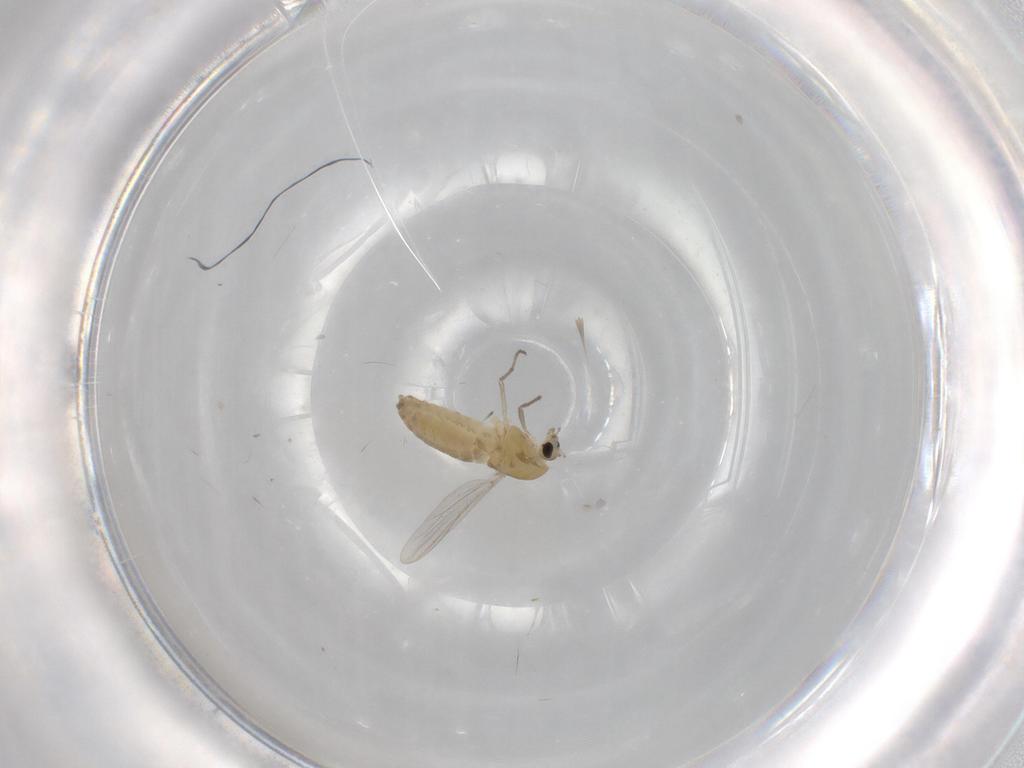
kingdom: Animalia
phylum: Arthropoda
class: Insecta
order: Diptera
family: Chironomidae
